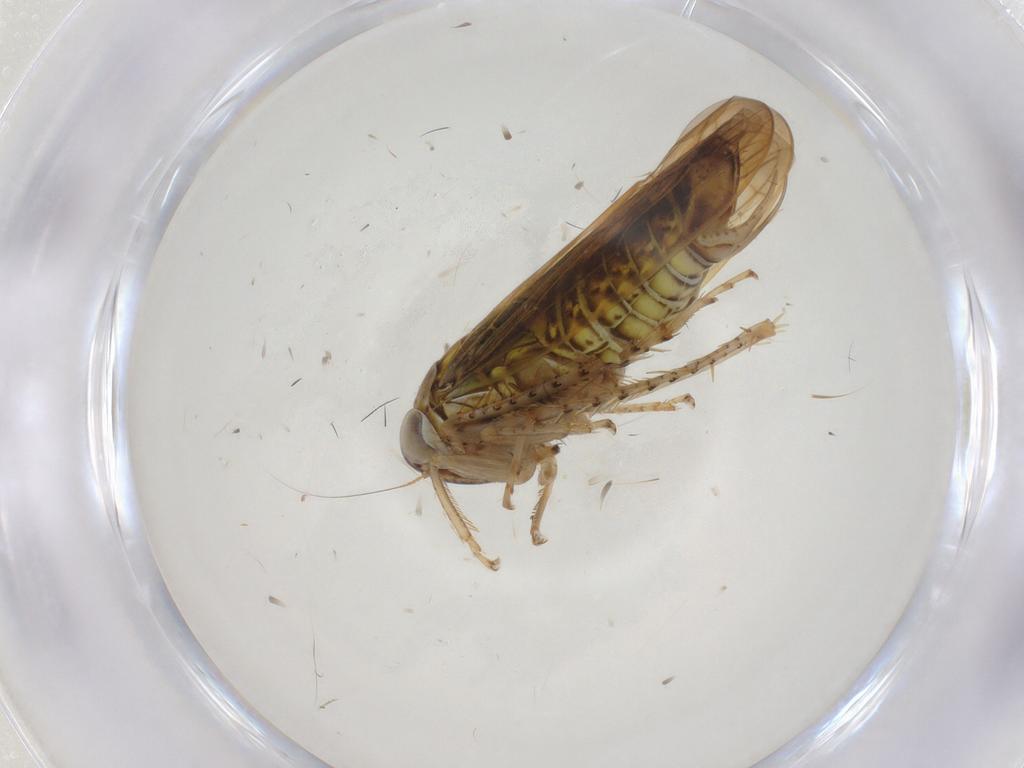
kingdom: Animalia
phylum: Arthropoda
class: Insecta
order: Hemiptera
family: Cicadellidae
